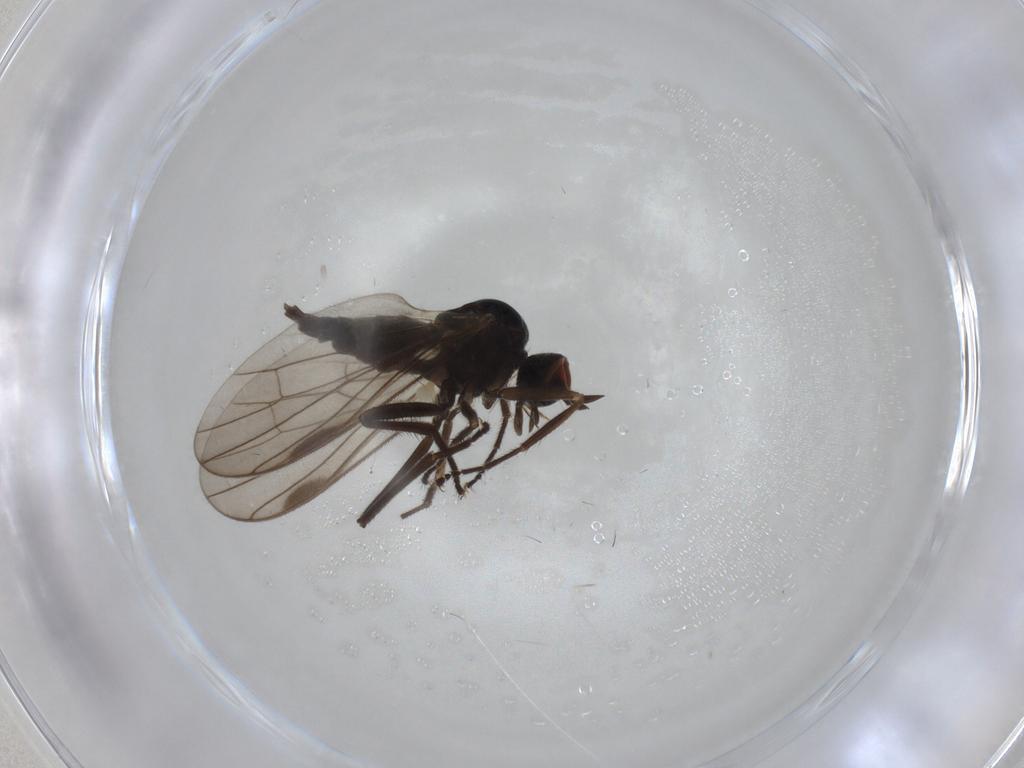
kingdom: Animalia
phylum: Arthropoda
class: Insecta
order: Diptera
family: Hybotidae
